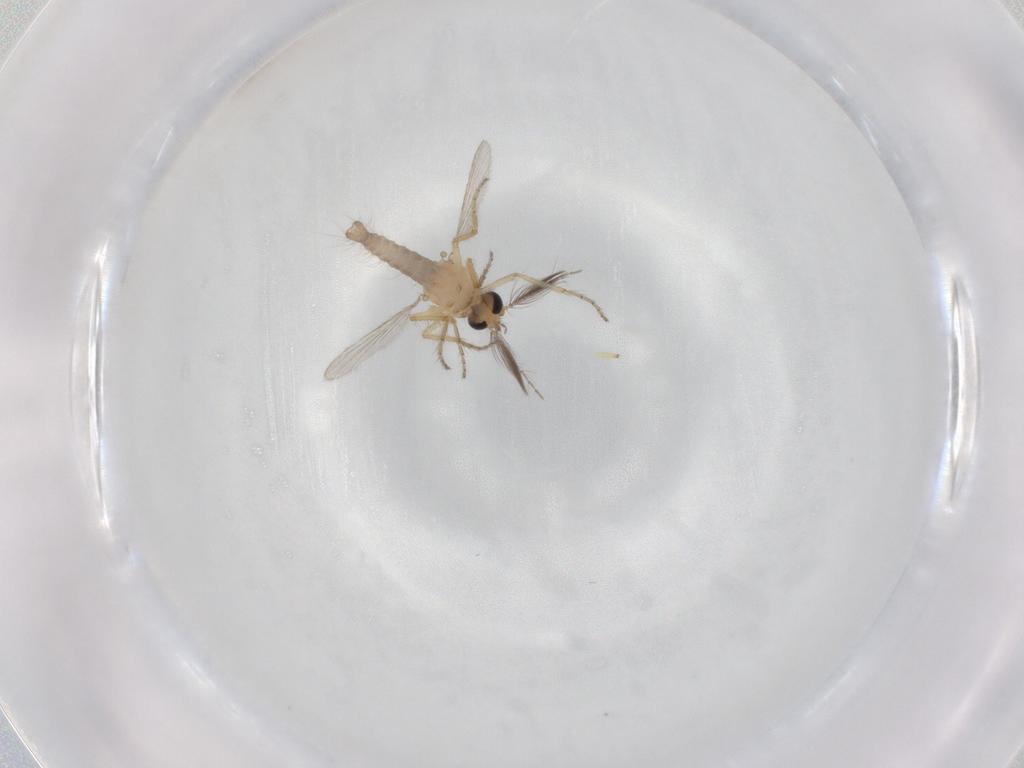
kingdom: Animalia
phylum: Arthropoda
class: Insecta
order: Diptera
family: Ceratopogonidae
